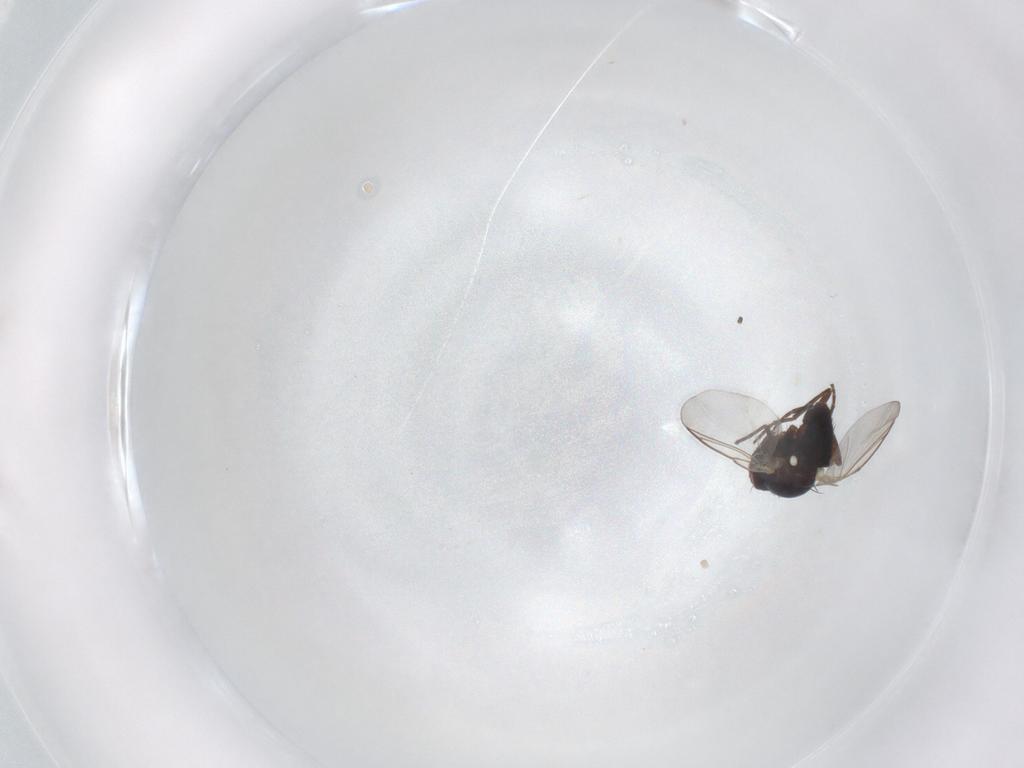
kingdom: Animalia
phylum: Arthropoda
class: Insecta
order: Diptera
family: Agromyzidae
